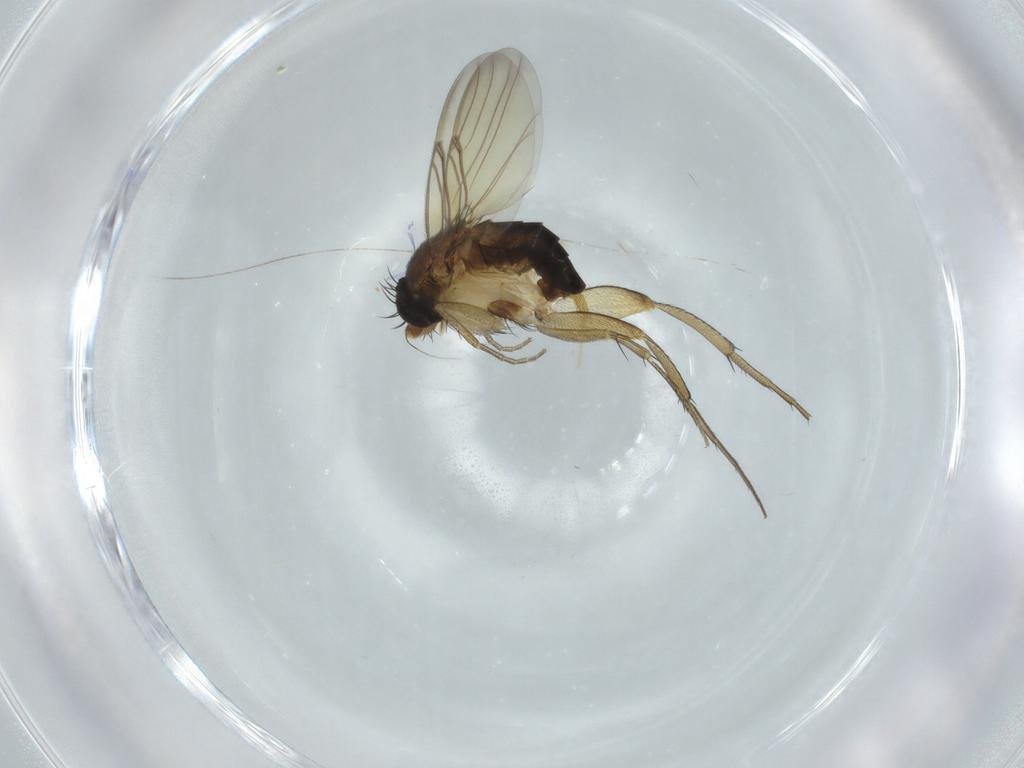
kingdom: Animalia
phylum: Arthropoda
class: Insecta
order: Diptera
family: Phoridae
